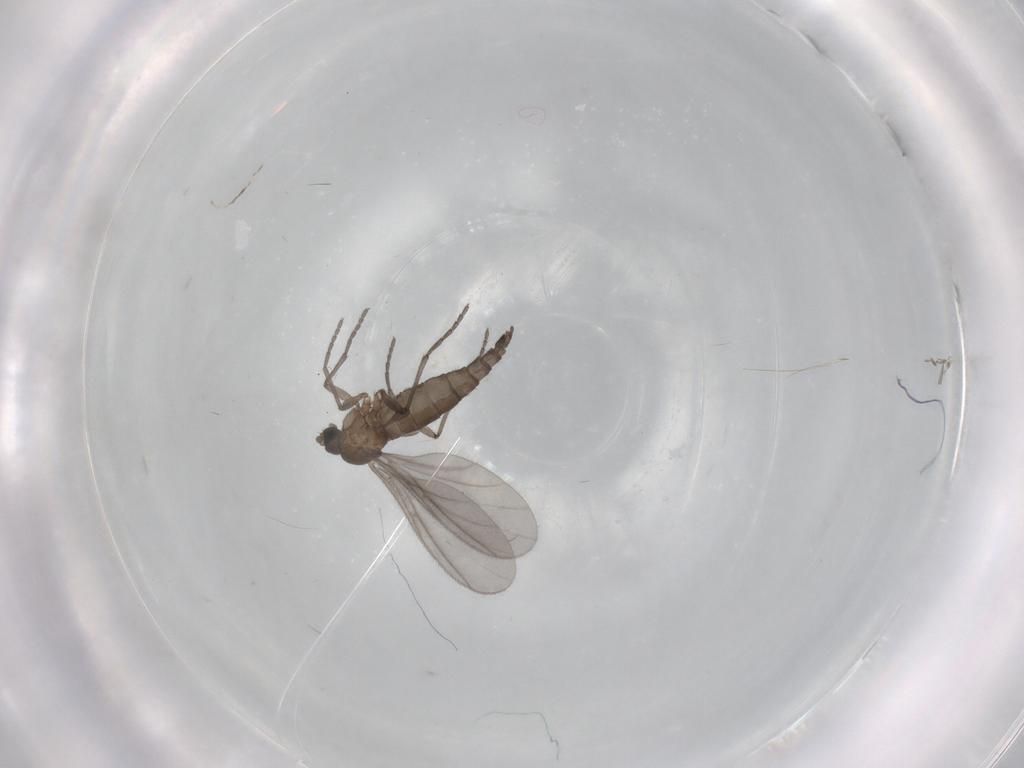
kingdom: Animalia
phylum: Arthropoda
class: Insecta
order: Diptera
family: Sciaridae
